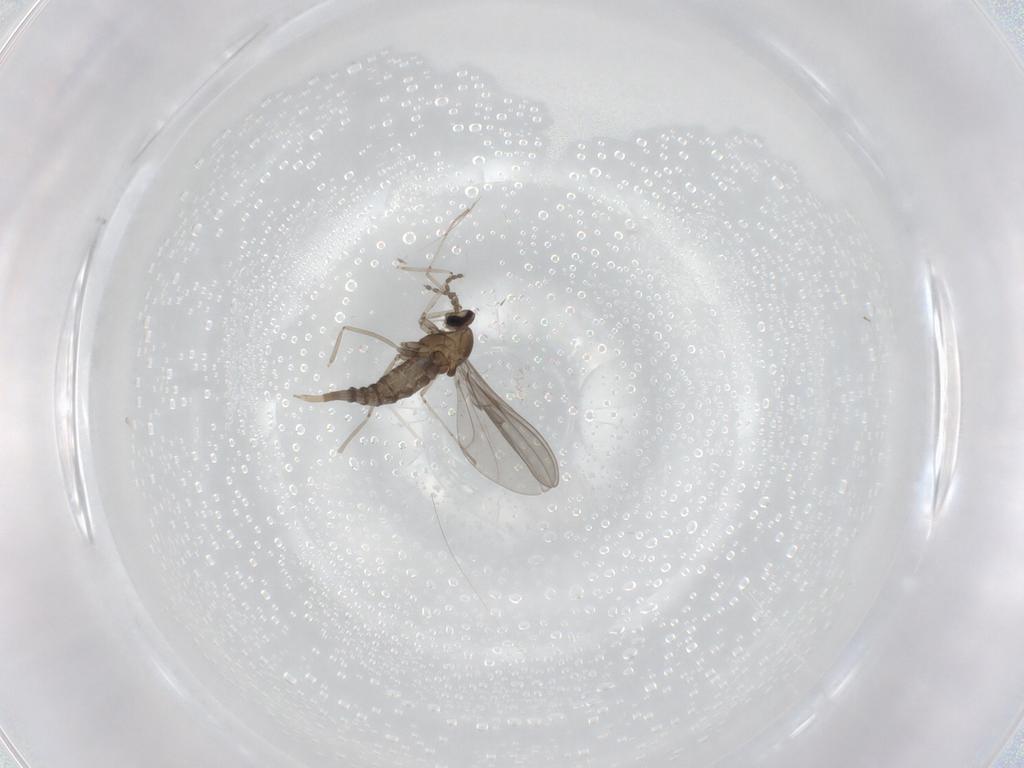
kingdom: Animalia
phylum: Arthropoda
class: Insecta
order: Diptera
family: Cecidomyiidae
